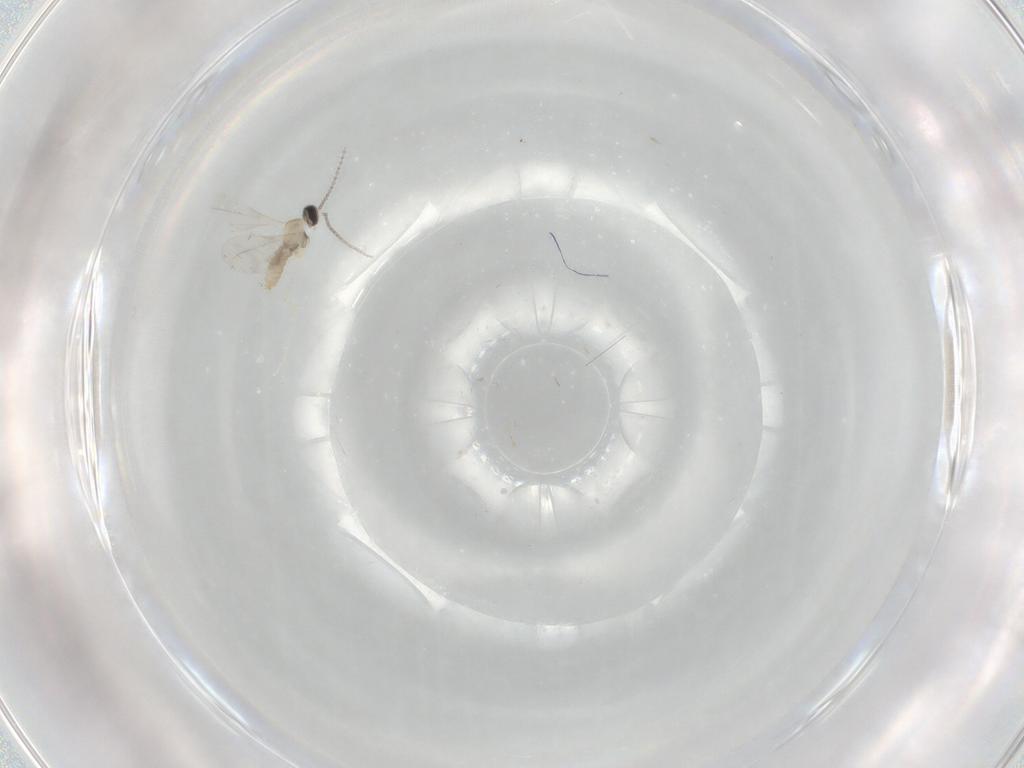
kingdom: Animalia
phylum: Arthropoda
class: Insecta
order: Diptera
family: Cecidomyiidae
